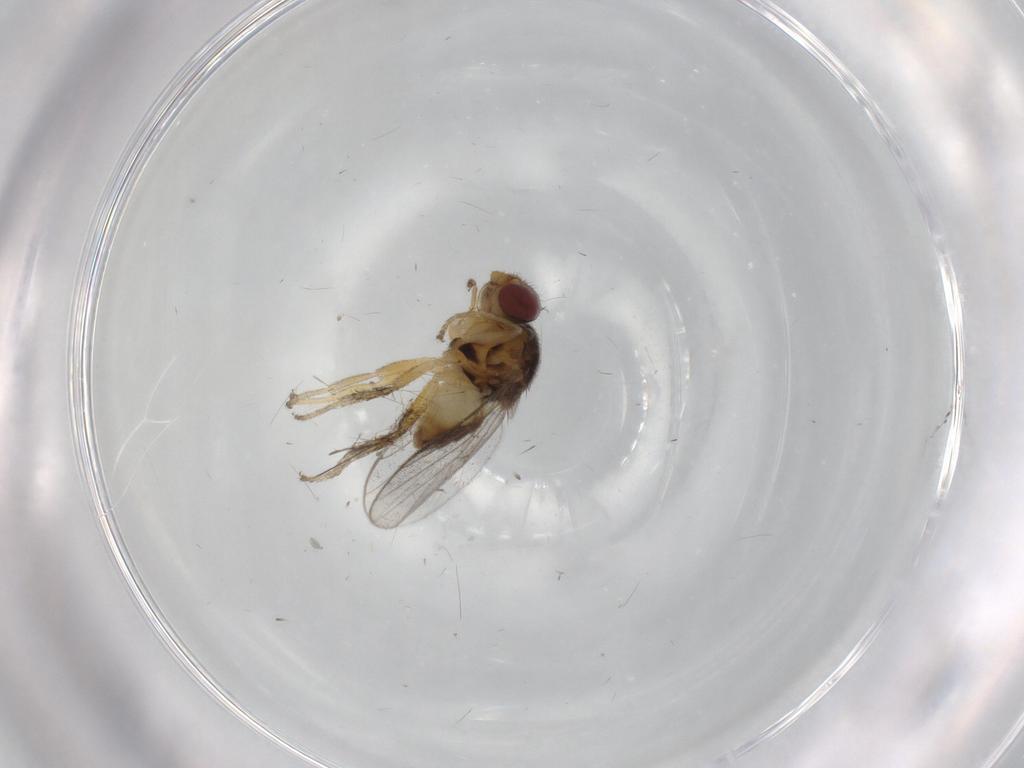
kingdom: Animalia
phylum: Arthropoda
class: Insecta
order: Diptera
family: Chloropidae
